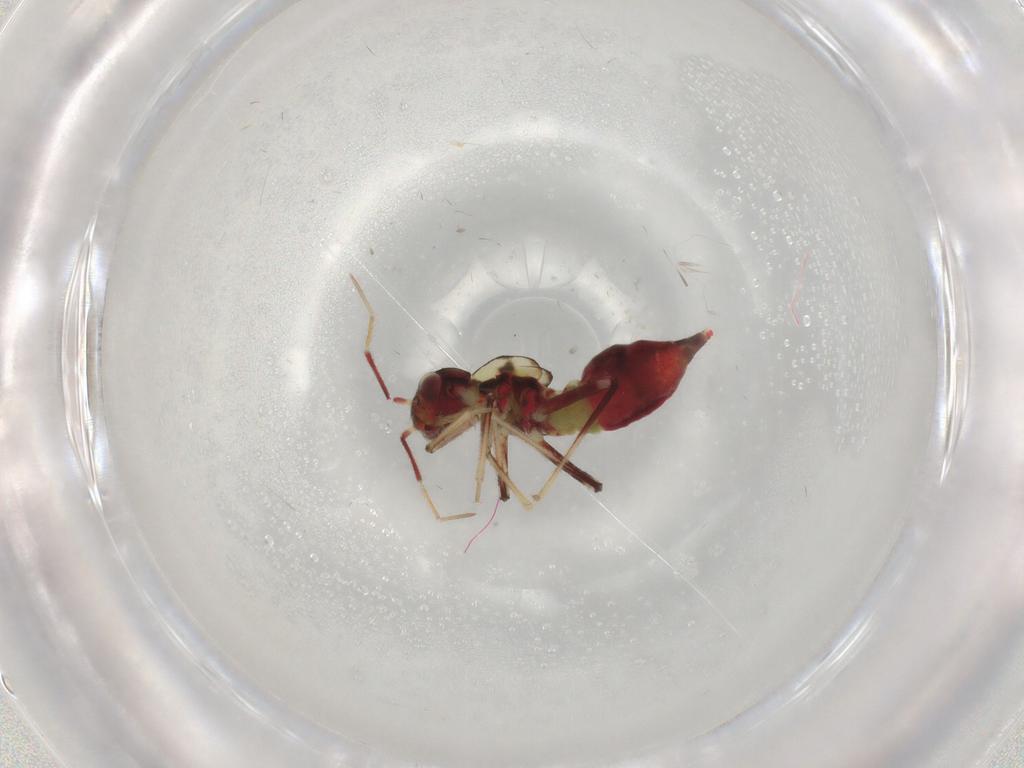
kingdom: Animalia
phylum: Arthropoda
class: Insecta
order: Hemiptera
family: Miridae
